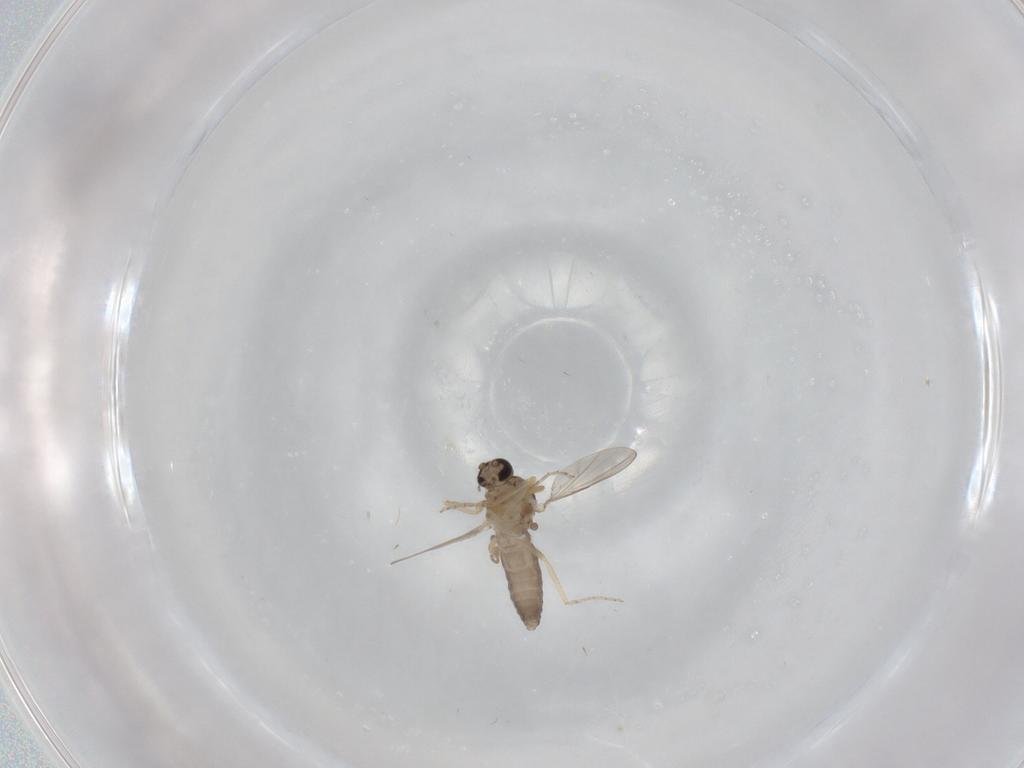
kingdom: Animalia
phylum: Arthropoda
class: Insecta
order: Diptera
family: Ceratopogonidae
